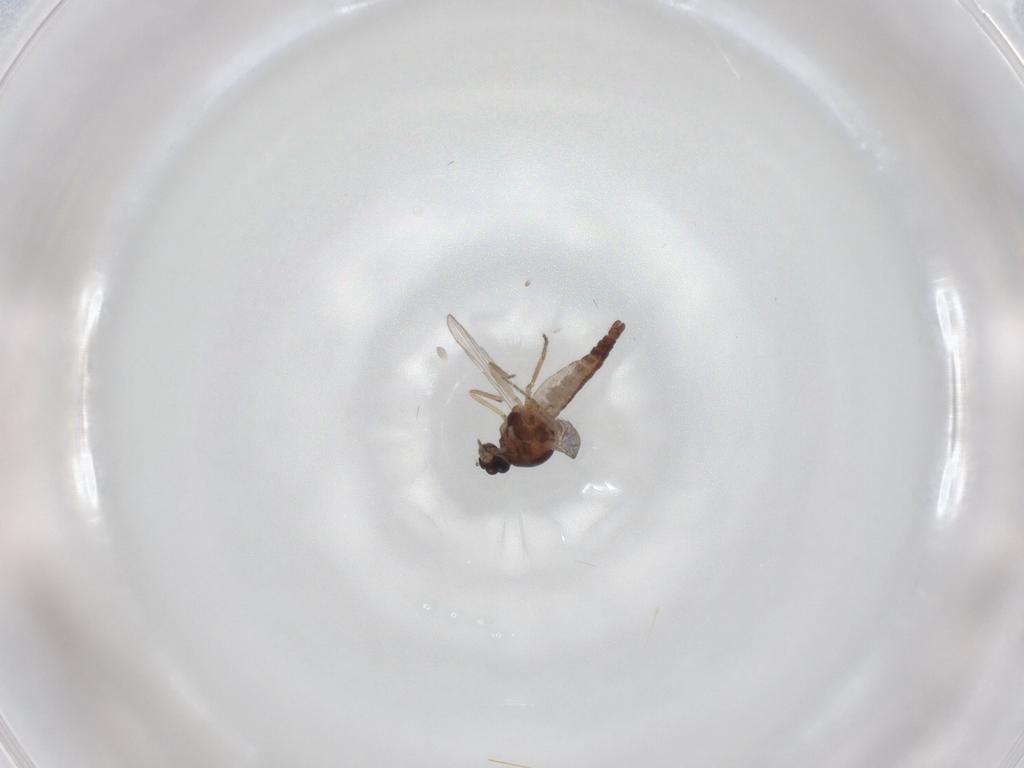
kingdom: Animalia
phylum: Arthropoda
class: Insecta
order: Diptera
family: Ceratopogonidae
